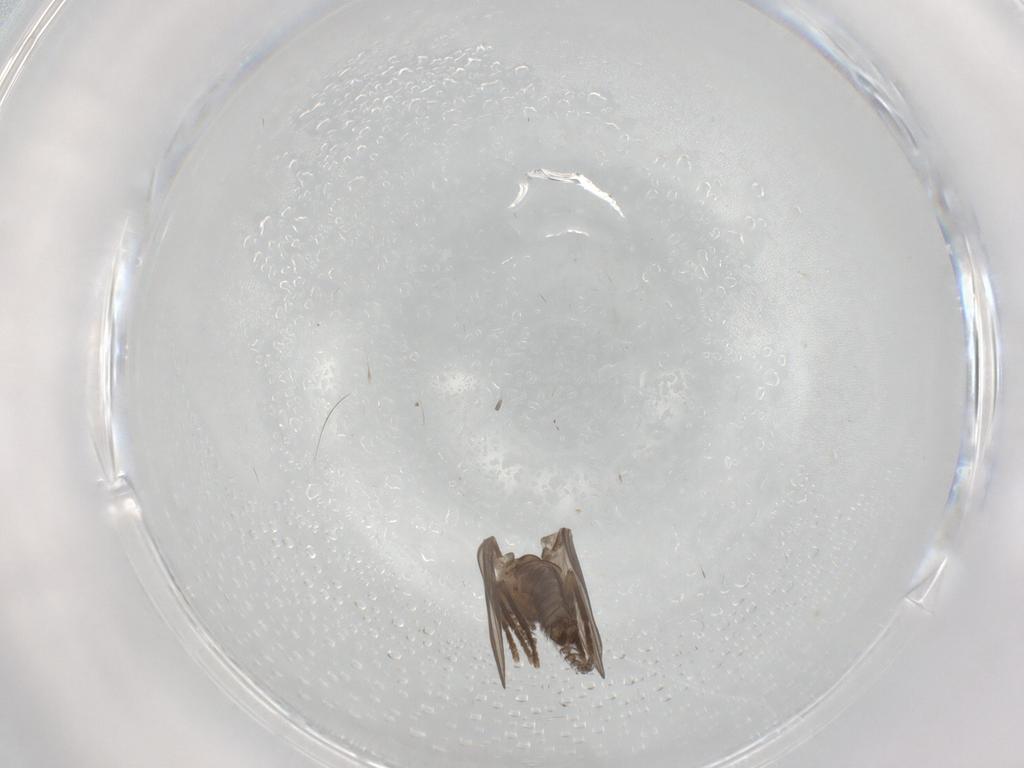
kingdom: Animalia
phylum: Arthropoda
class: Insecta
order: Diptera
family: Psychodidae
